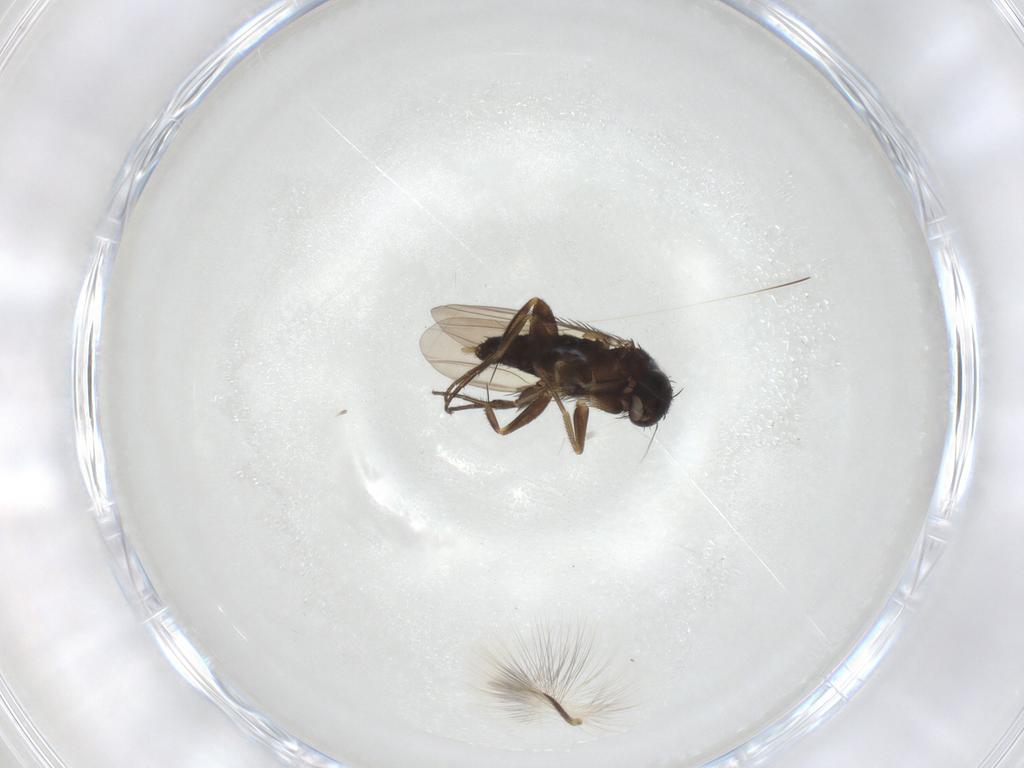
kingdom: Animalia
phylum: Arthropoda
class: Insecta
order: Diptera
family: Phoridae
